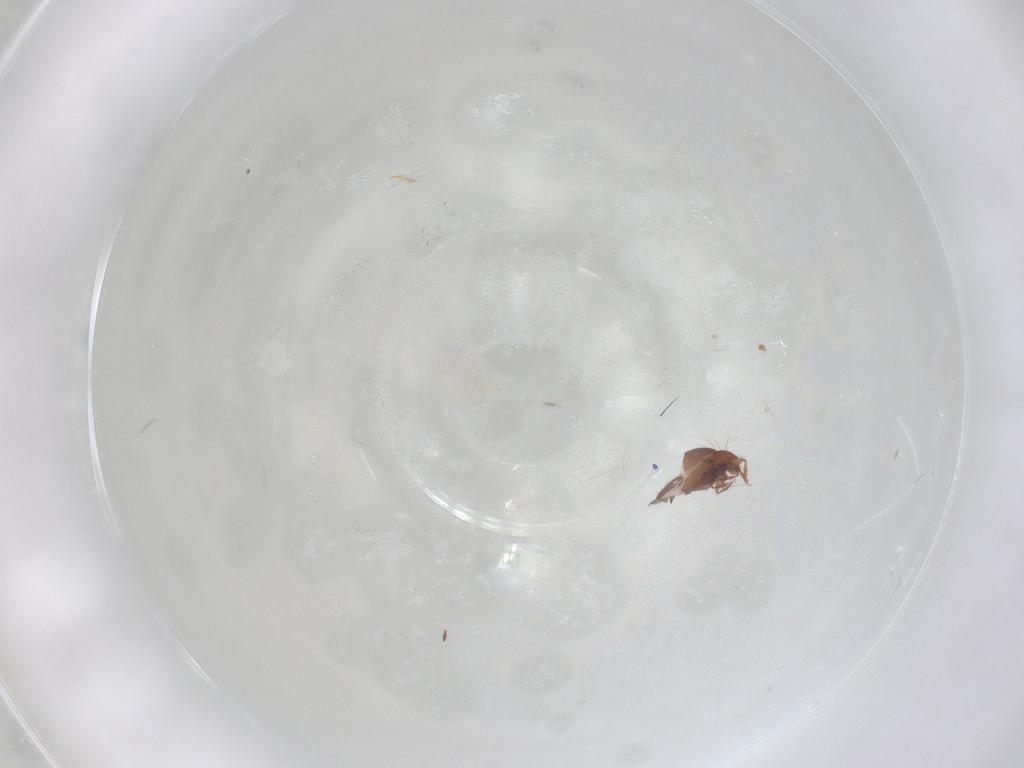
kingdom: Animalia
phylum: Arthropoda
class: Arachnida
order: Sarcoptiformes
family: Oribatulidae
